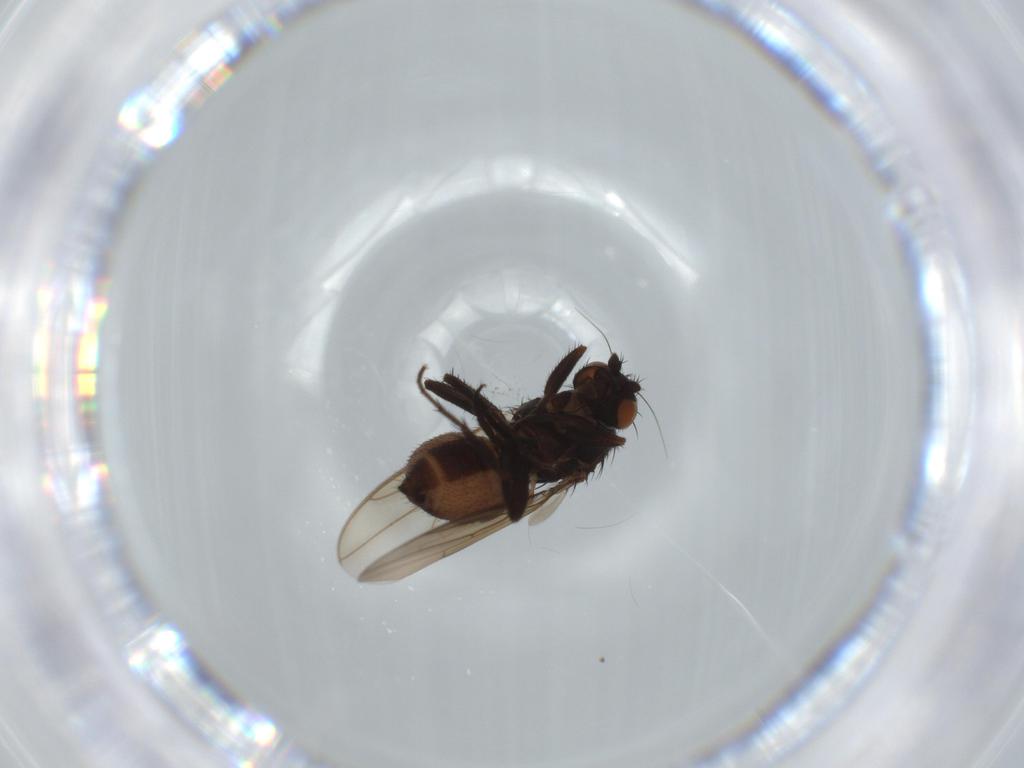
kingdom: Animalia
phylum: Arthropoda
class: Insecta
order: Diptera
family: Sphaeroceridae
